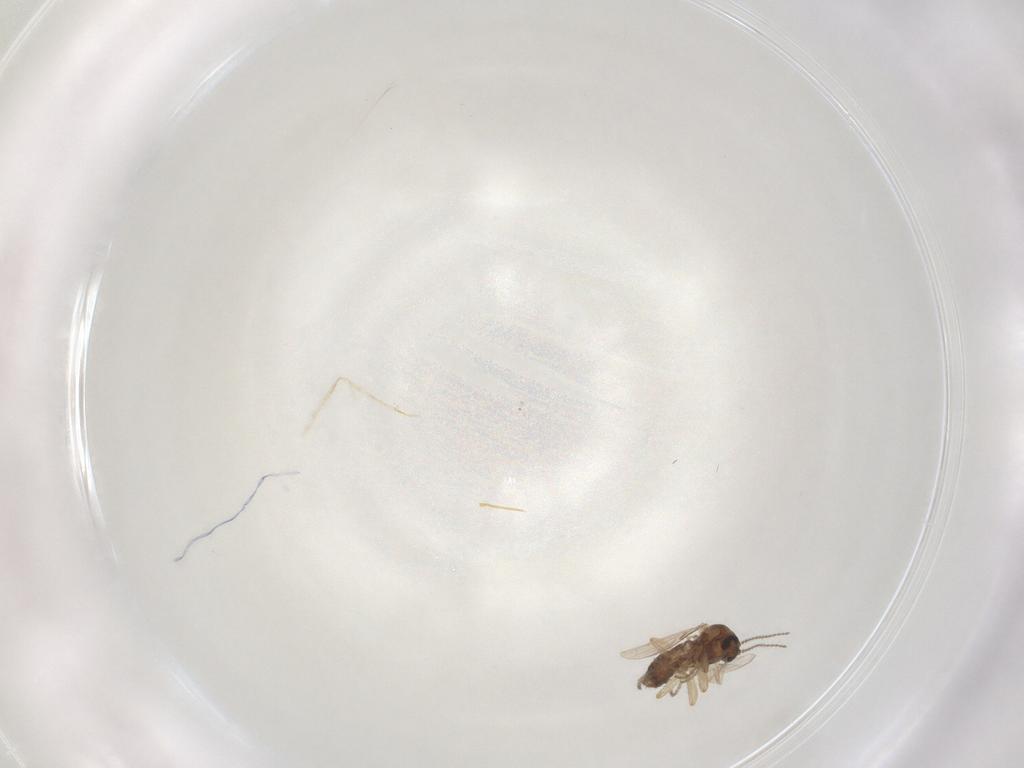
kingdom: Animalia
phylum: Arthropoda
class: Insecta
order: Diptera
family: Ceratopogonidae
